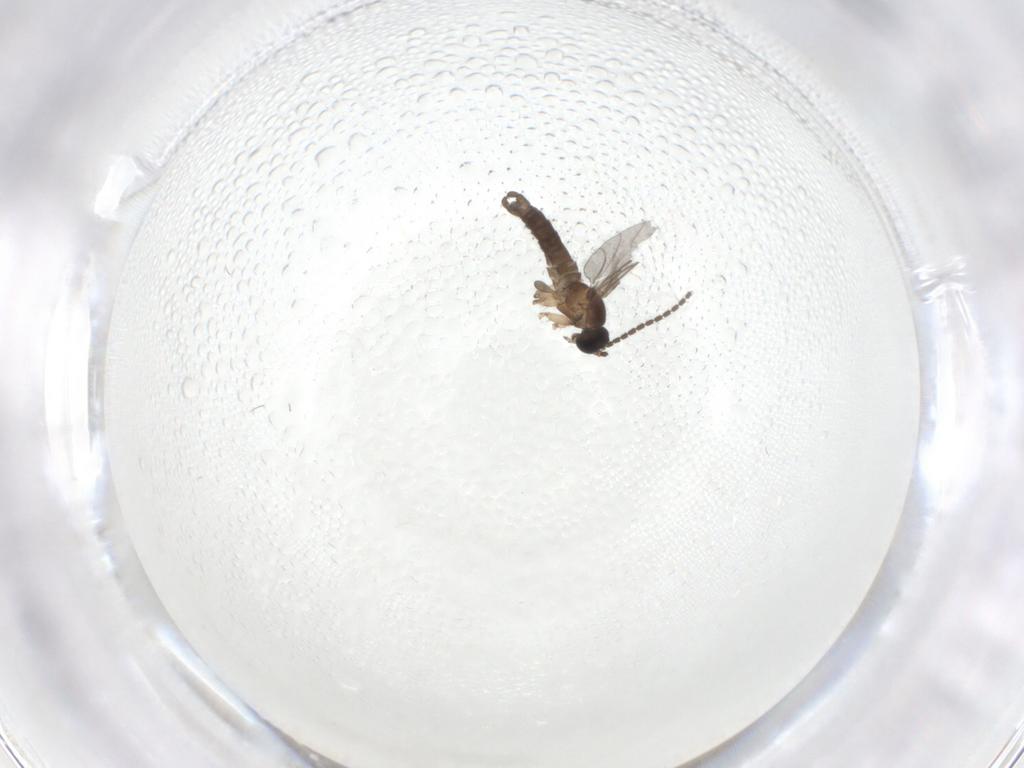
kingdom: Animalia
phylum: Arthropoda
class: Insecta
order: Diptera
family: Sciaridae
